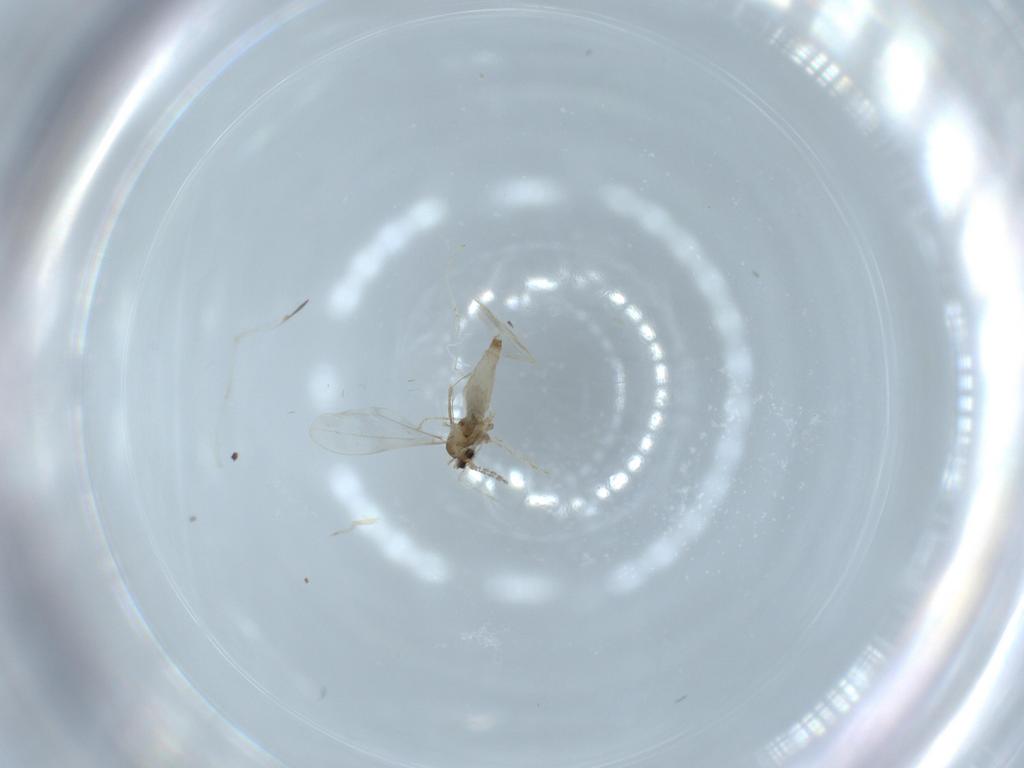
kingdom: Animalia
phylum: Arthropoda
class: Insecta
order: Diptera
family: Cecidomyiidae
